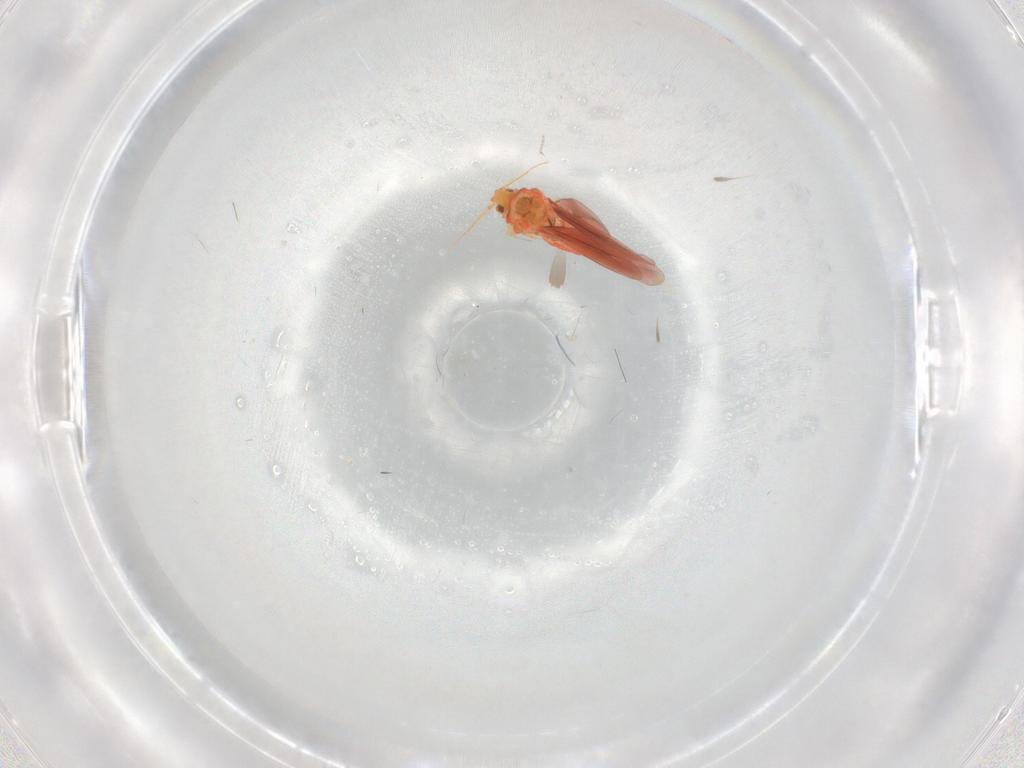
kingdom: Animalia
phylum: Arthropoda
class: Insecta
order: Hemiptera
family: Aleyrodidae
